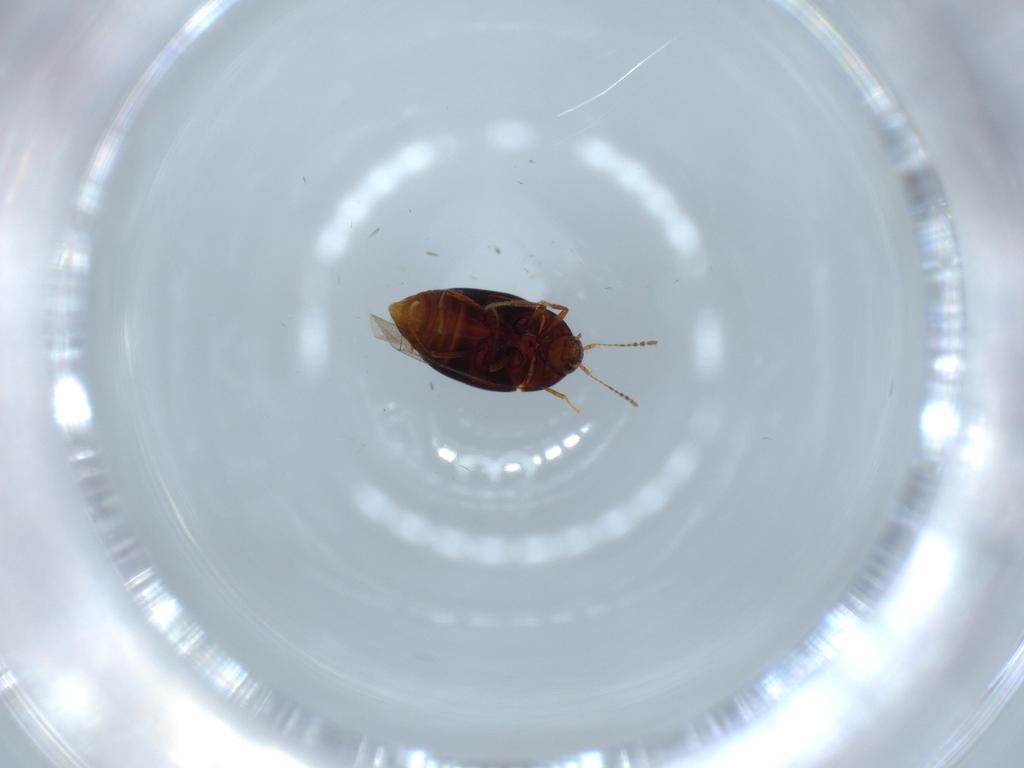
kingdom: Animalia
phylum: Arthropoda
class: Insecta
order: Coleoptera
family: Staphylinidae
